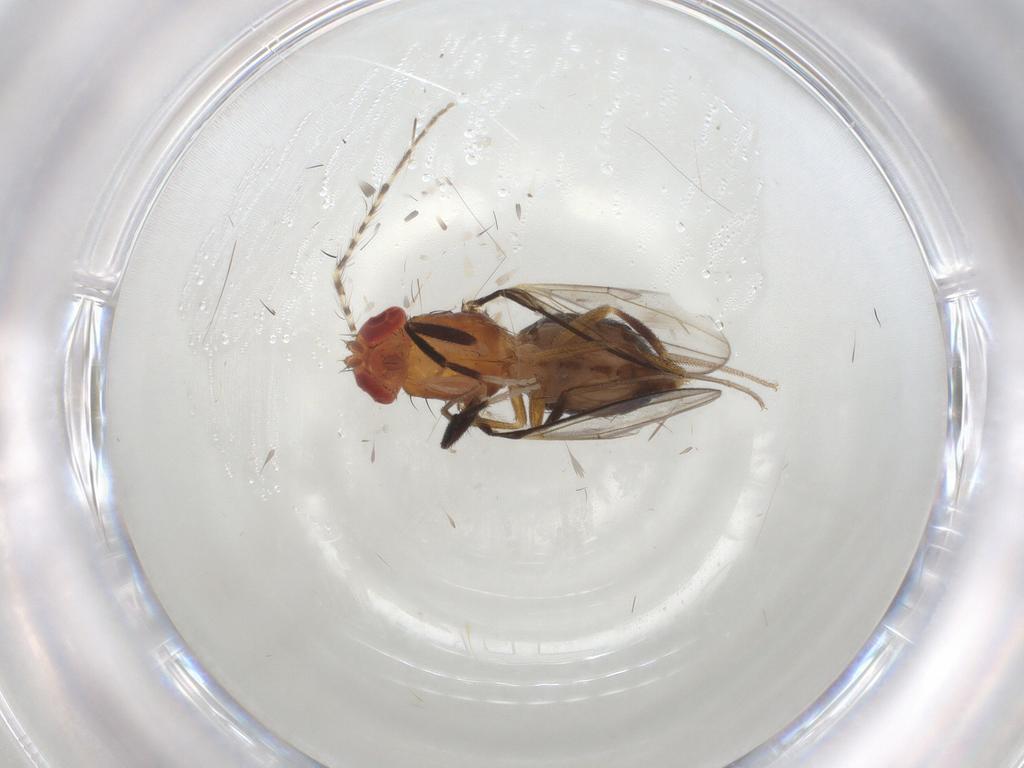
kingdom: Animalia
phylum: Arthropoda
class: Insecta
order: Diptera
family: Drosophilidae
